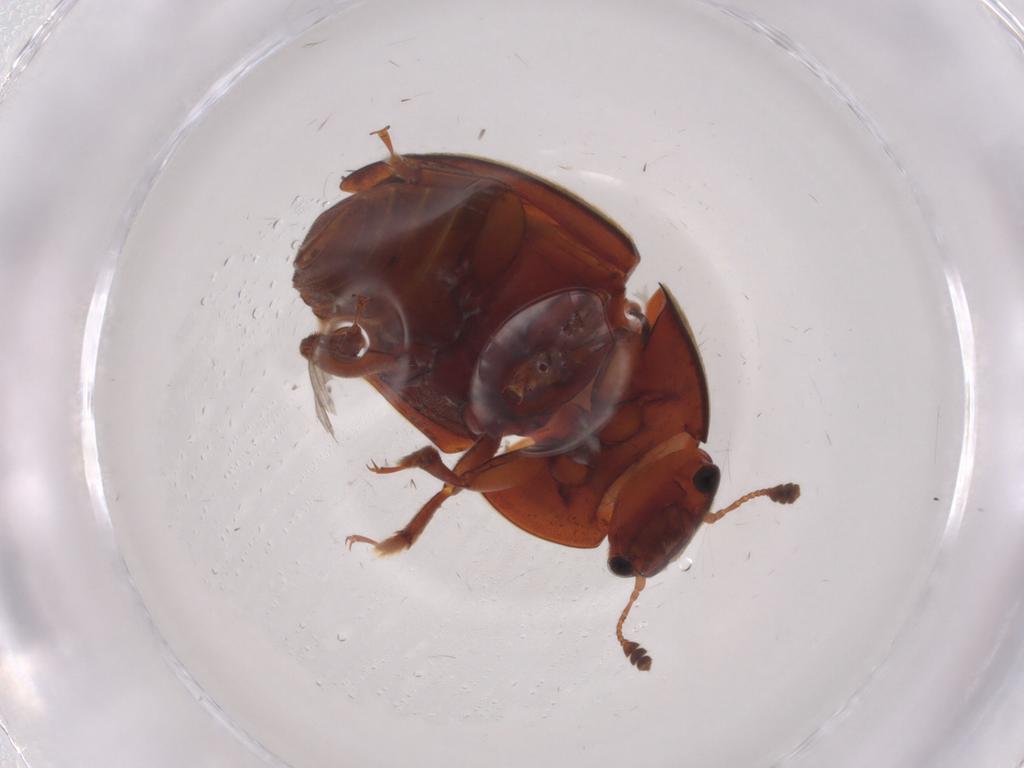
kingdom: Animalia
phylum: Arthropoda
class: Insecta
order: Coleoptera
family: Nitidulidae
